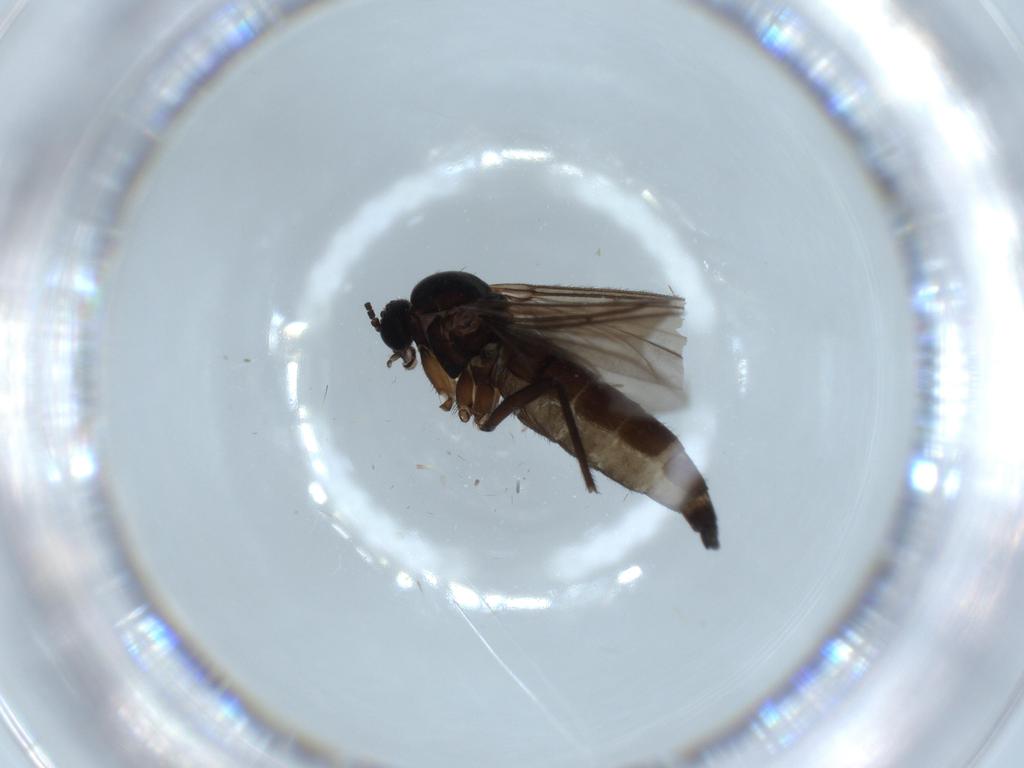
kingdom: Animalia
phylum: Arthropoda
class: Insecta
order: Diptera
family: Sciaridae
